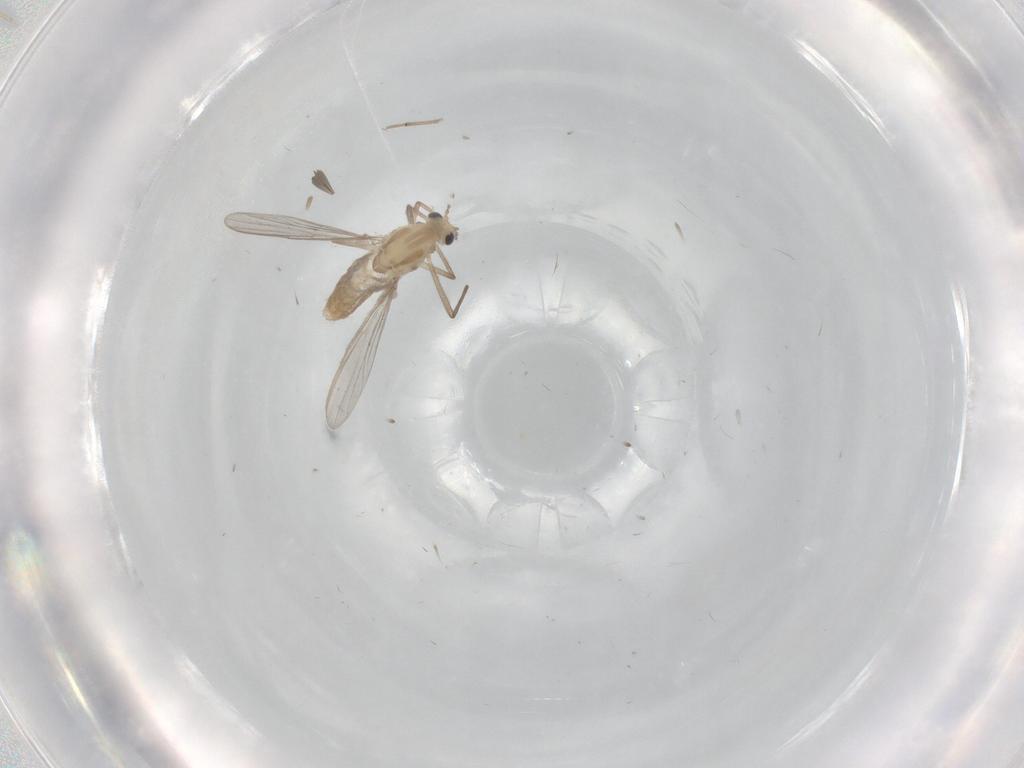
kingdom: Animalia
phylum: Arthropoda
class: Insecta
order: Diptera
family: Chironomidae
